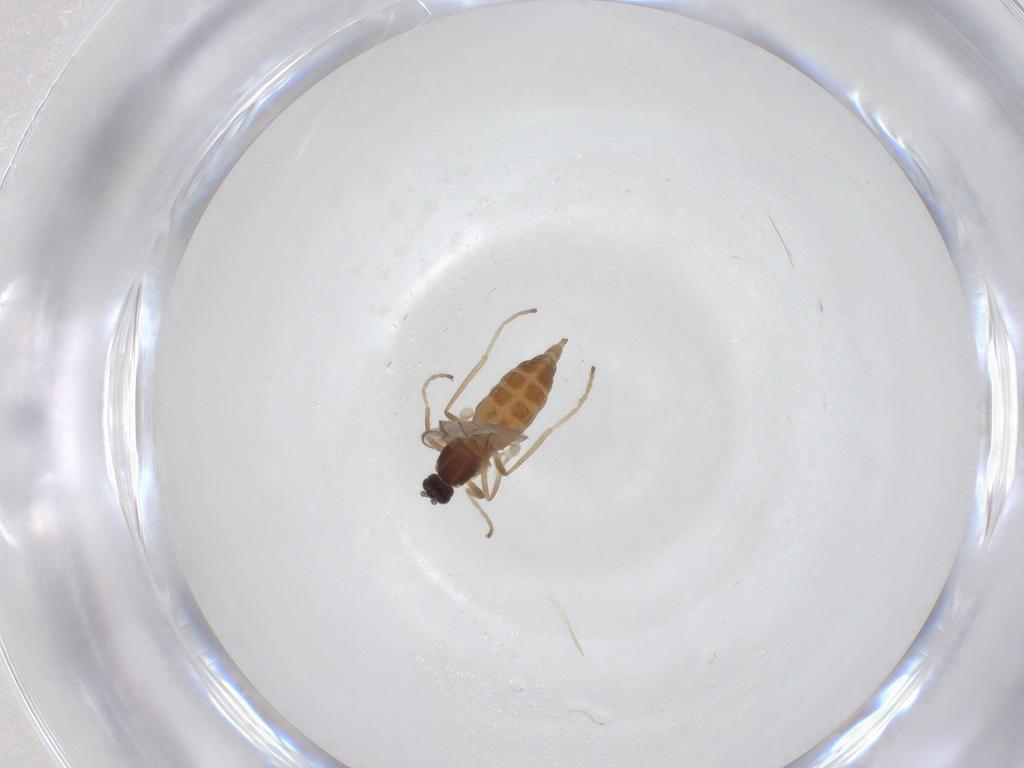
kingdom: Animalia
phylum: Arthropoda
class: Insecta
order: Diptera
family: Cecidomyiidae
